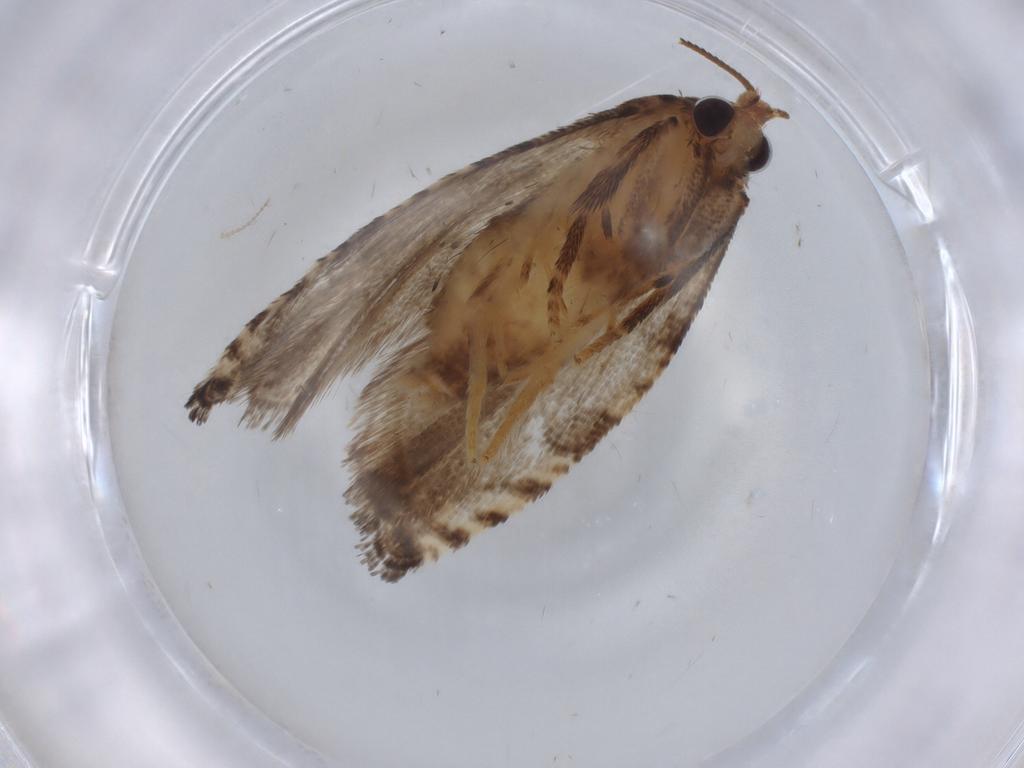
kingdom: Animalia
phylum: Arthropoda
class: Insecta
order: Lepidoptera
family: Tortricidae
